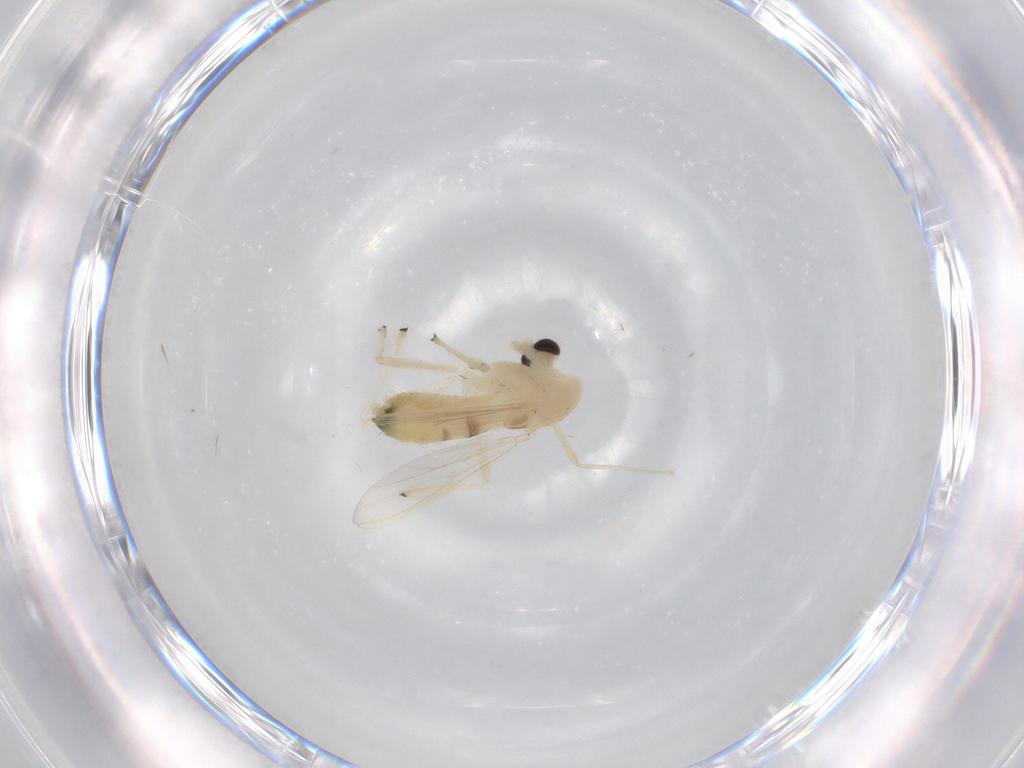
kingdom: Animalia
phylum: Arthropoda
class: Insecta
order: Diptera
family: Chironomidae
